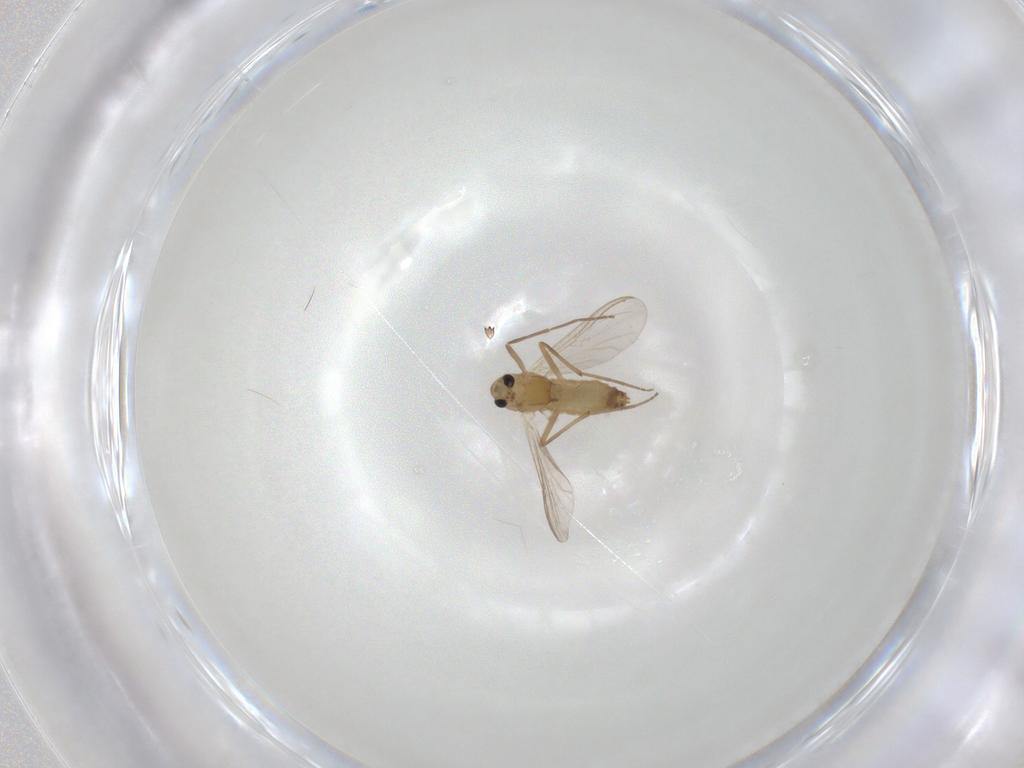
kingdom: Animalia
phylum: Arthropoda
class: Insecta
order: Diptera
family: Chironomidae
